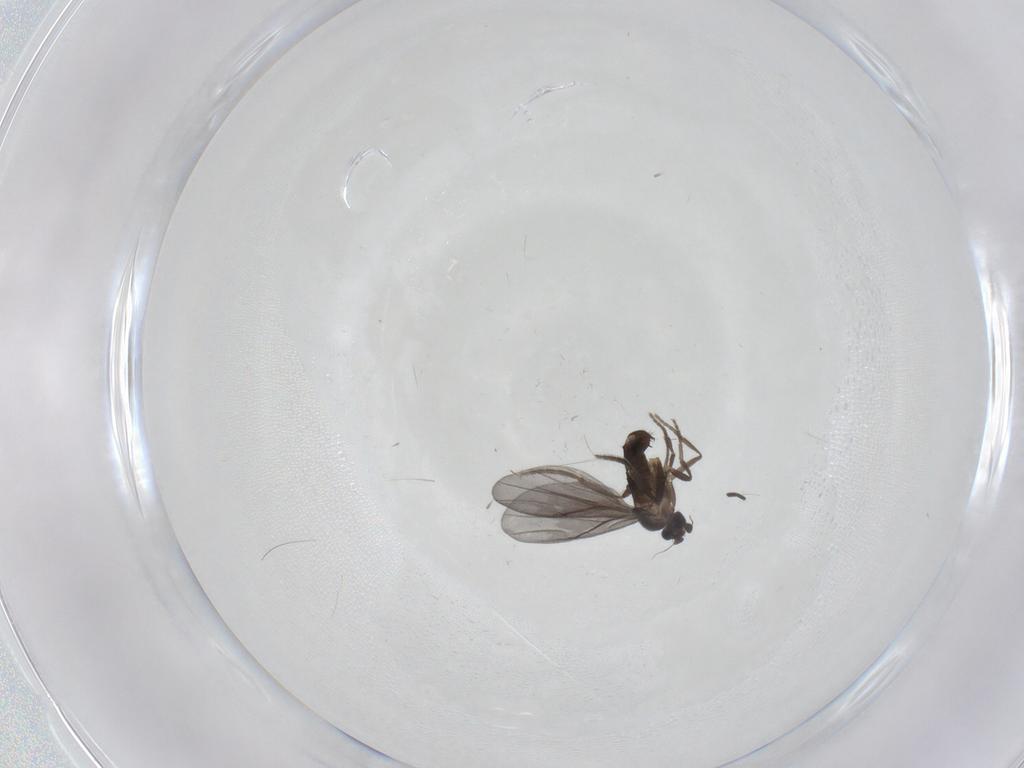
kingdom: Animalia
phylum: Arthropoda
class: Insecta
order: Diptera
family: Phoridae
